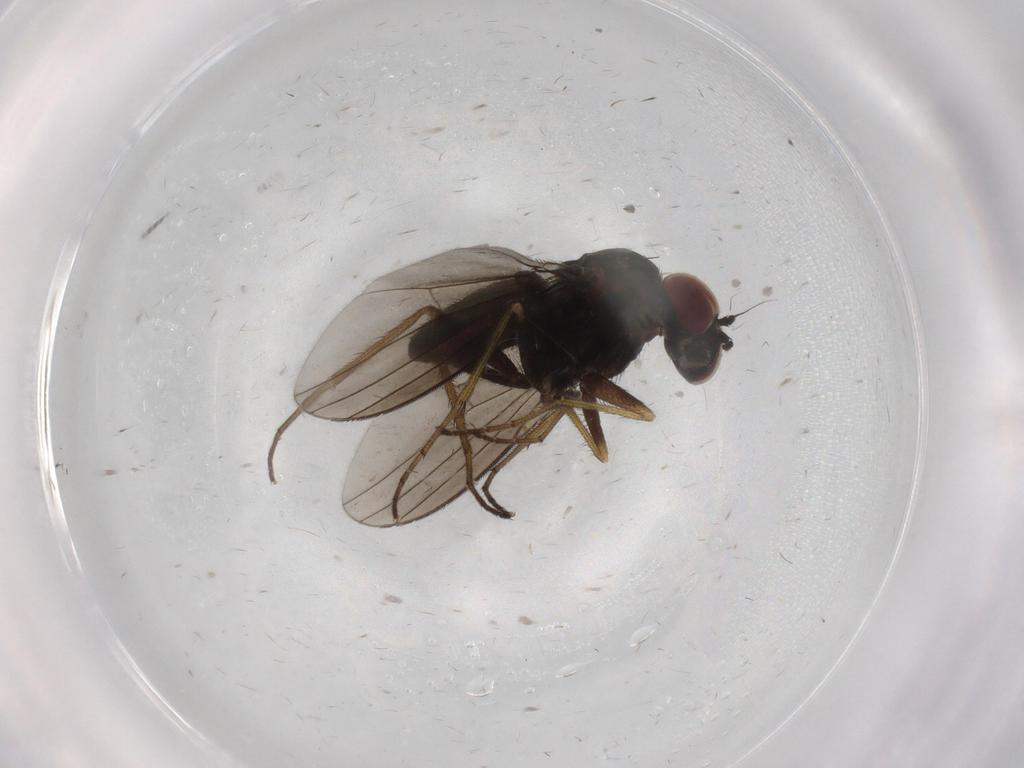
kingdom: Animalia
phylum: Arthropoda
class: Insecta
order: Diptera
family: Dolichopodidae
